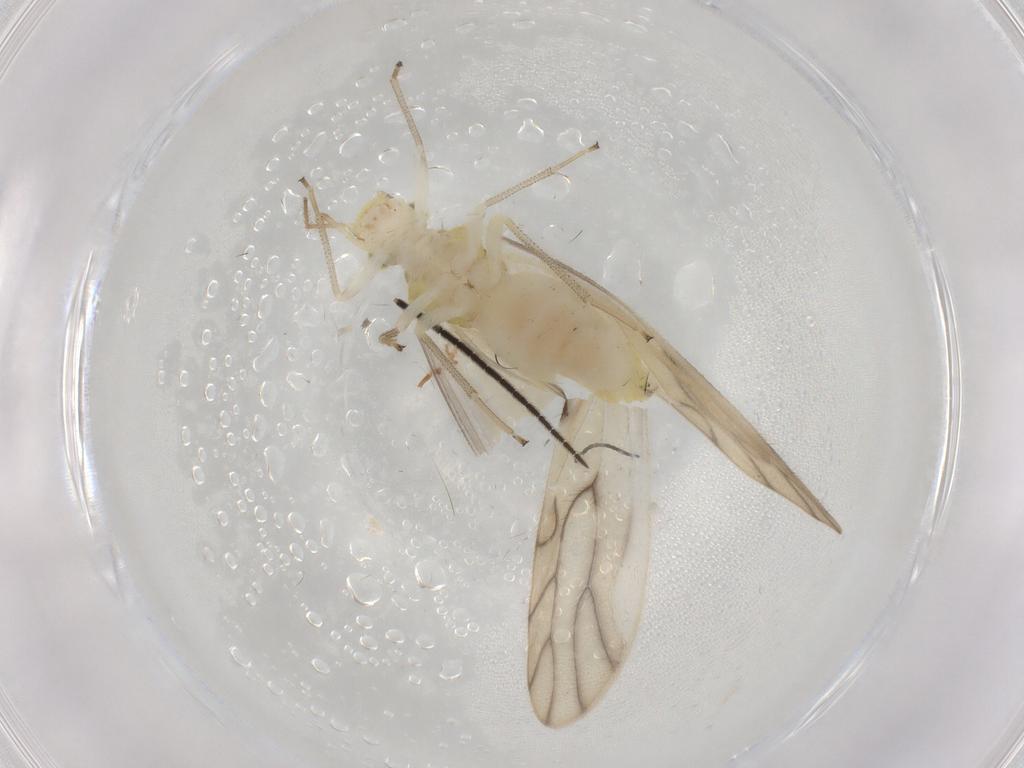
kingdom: Animalia
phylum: Arthropoda
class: Insecta
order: Psocodea
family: Caeciliusidae
